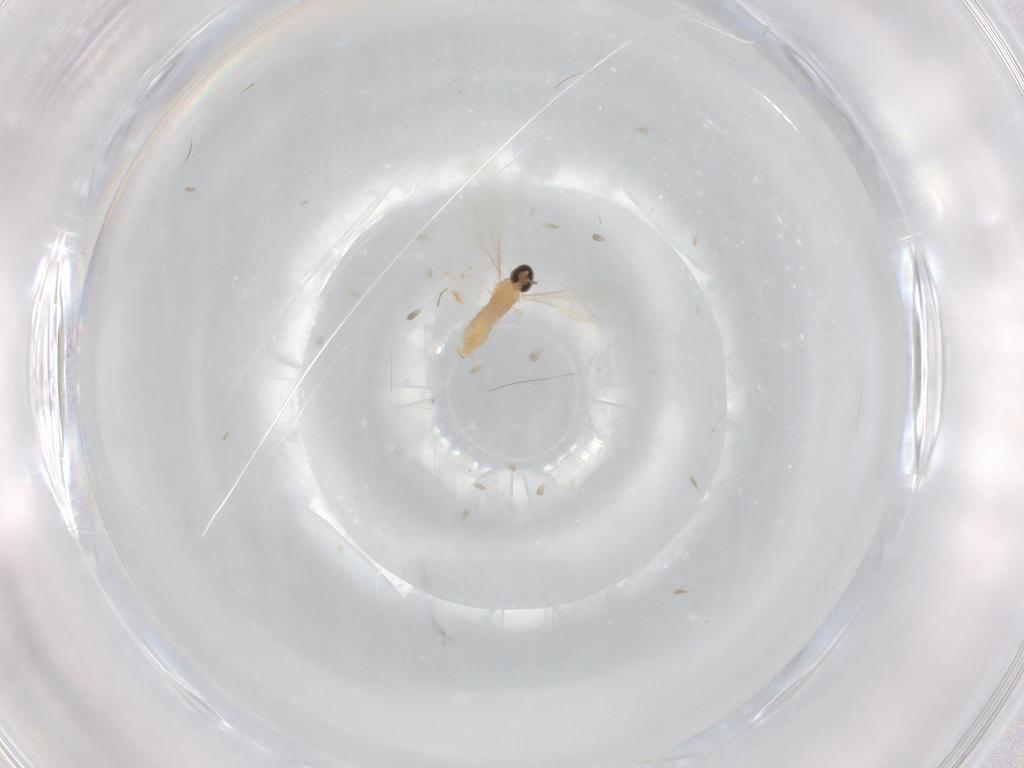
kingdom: Animalia
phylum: Arthropoda
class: Insecta
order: Diptera
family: Cecidomyiidae
